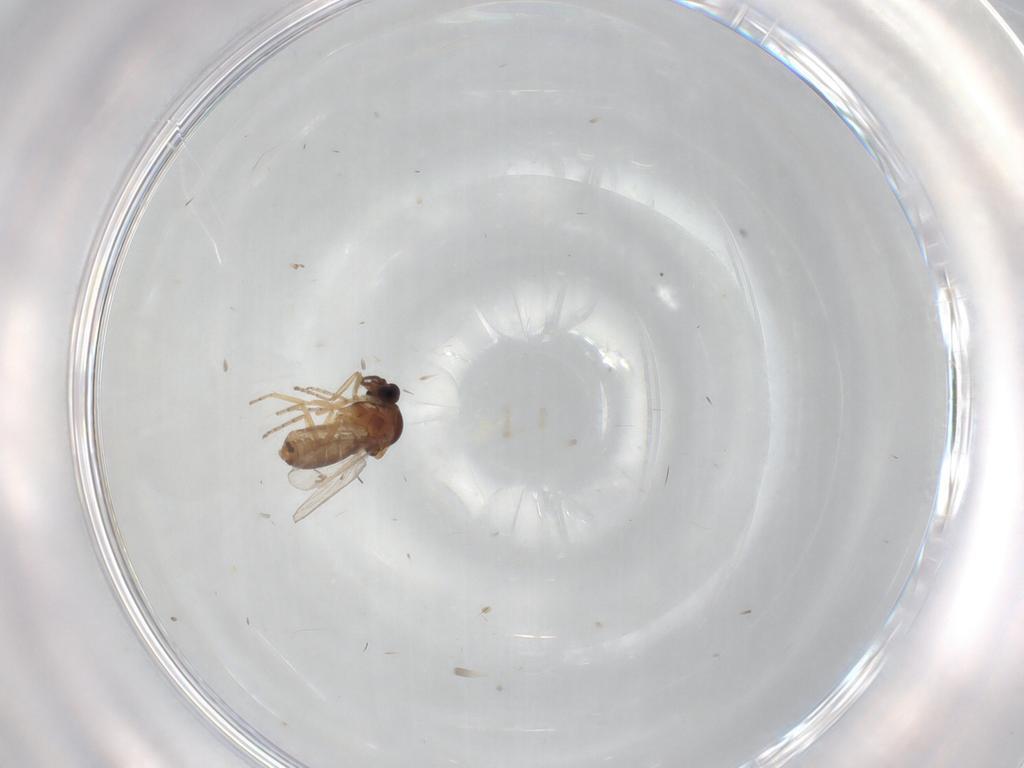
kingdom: Animalia
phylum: Arthropoda
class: Insecta
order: Diptera
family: Ceratopogonidae
